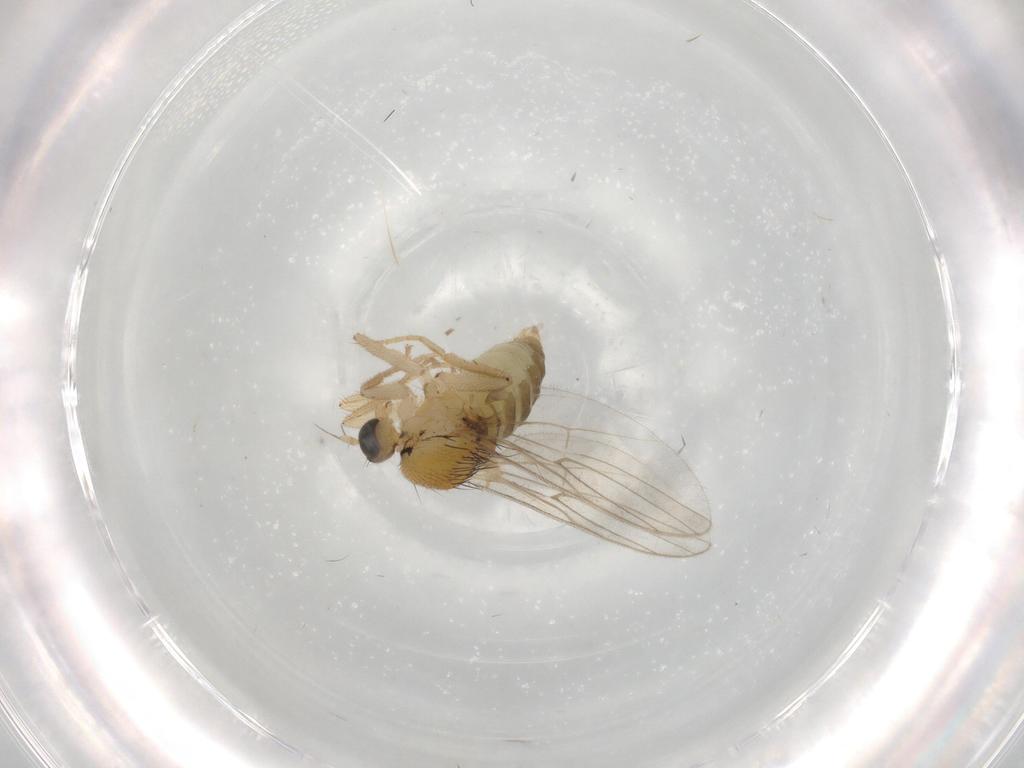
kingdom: Animalia
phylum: Arthropoda
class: Insecta
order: Diptera
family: Hybotidae
